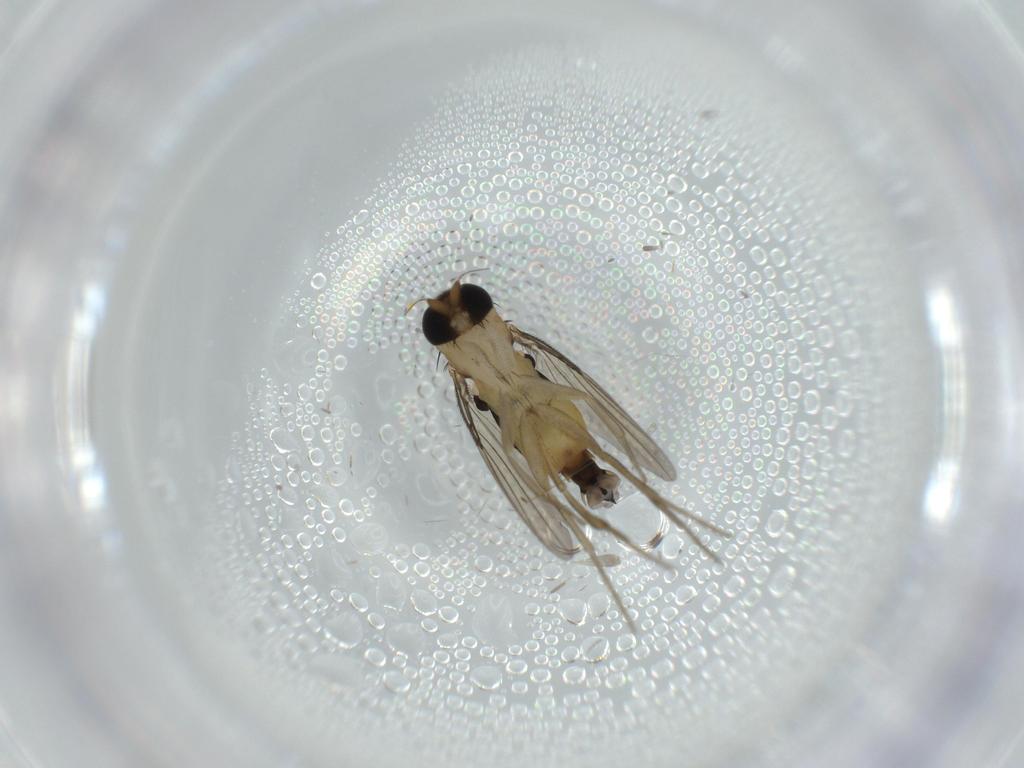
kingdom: Animalia
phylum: Arthropoda
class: Insecta
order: Diptera
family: Phoridae
